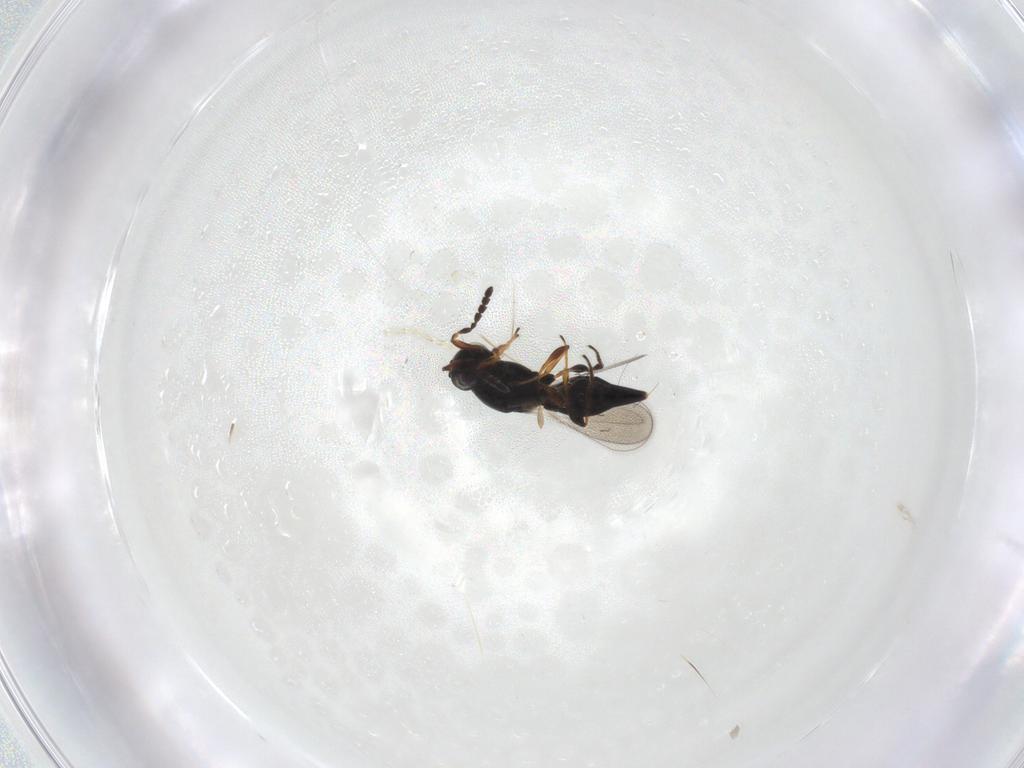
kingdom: Animalia
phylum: Arthropoda
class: Insecta
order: Hymenoptera
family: Platygastridae
